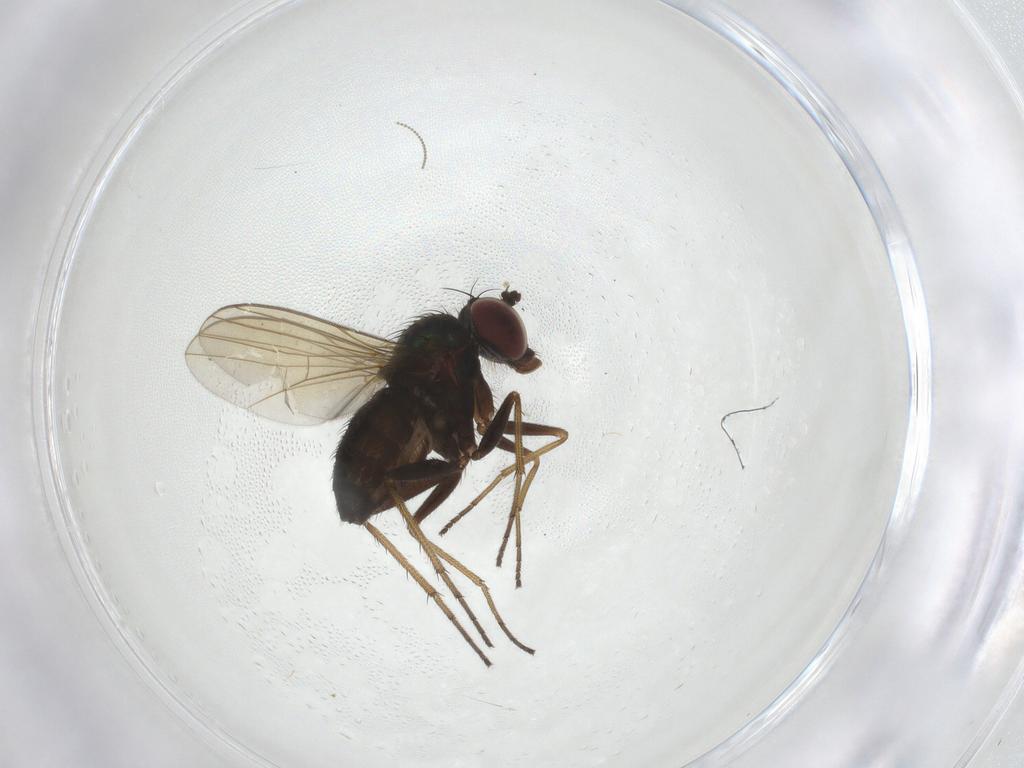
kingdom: Animalia
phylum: Arthropoda
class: Insecta
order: Diptera
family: Dolichopodidae
